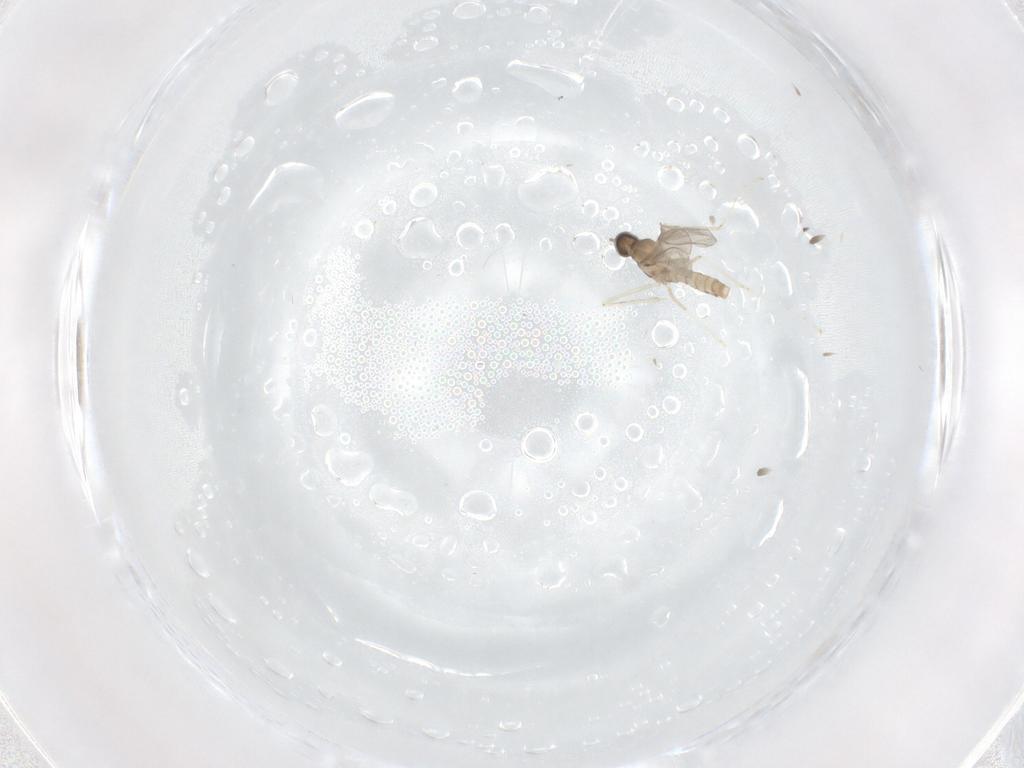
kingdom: Animalia
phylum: Arthropoda
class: Insecta
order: Diptera
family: Cecidomyiidae
